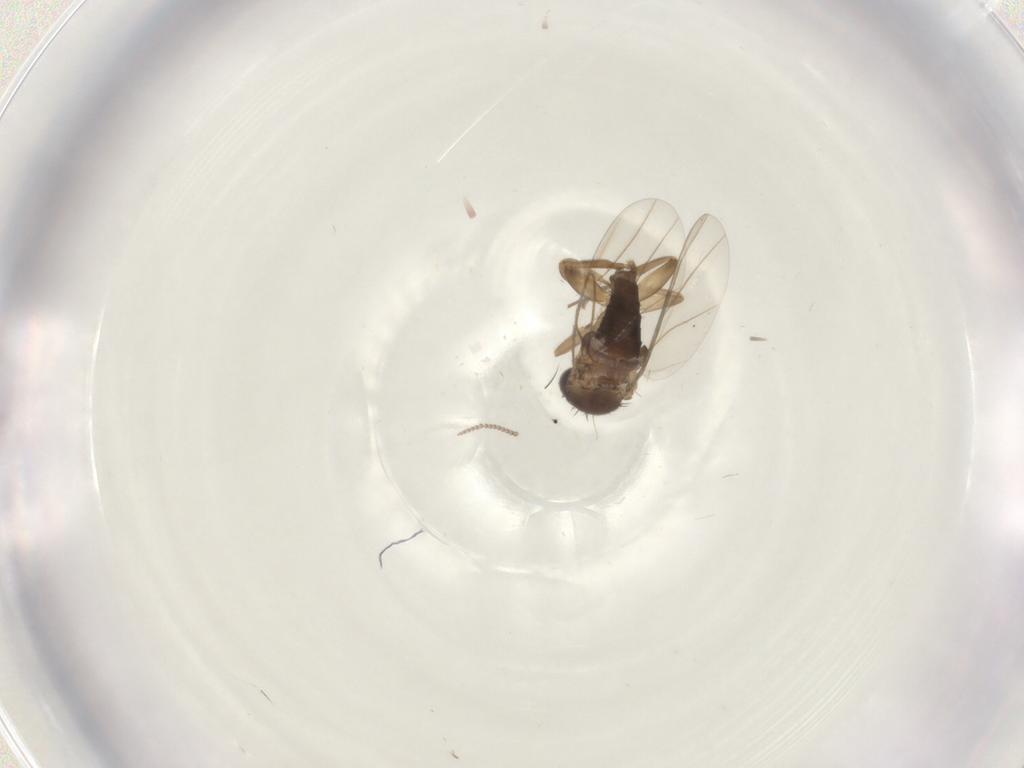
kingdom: Animalia
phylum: Arthropoda
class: Insecta
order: Diptera
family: Phoridae
